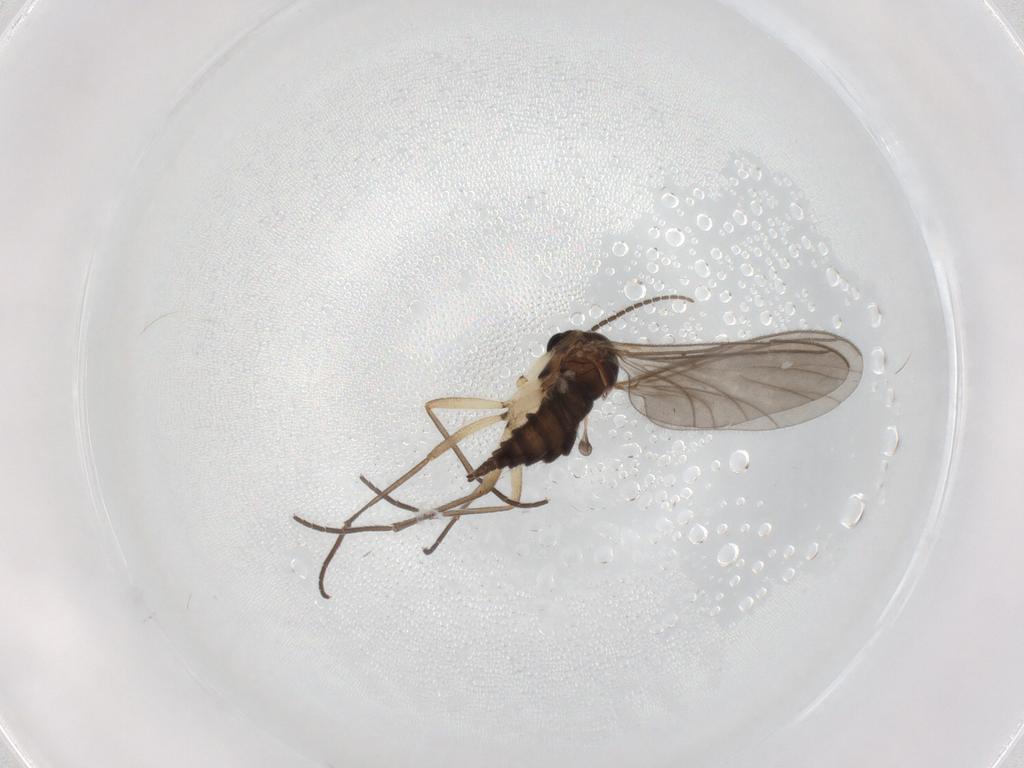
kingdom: Animalia
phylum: Arthropoda
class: Insecta
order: Diptera
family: Sciaridae
